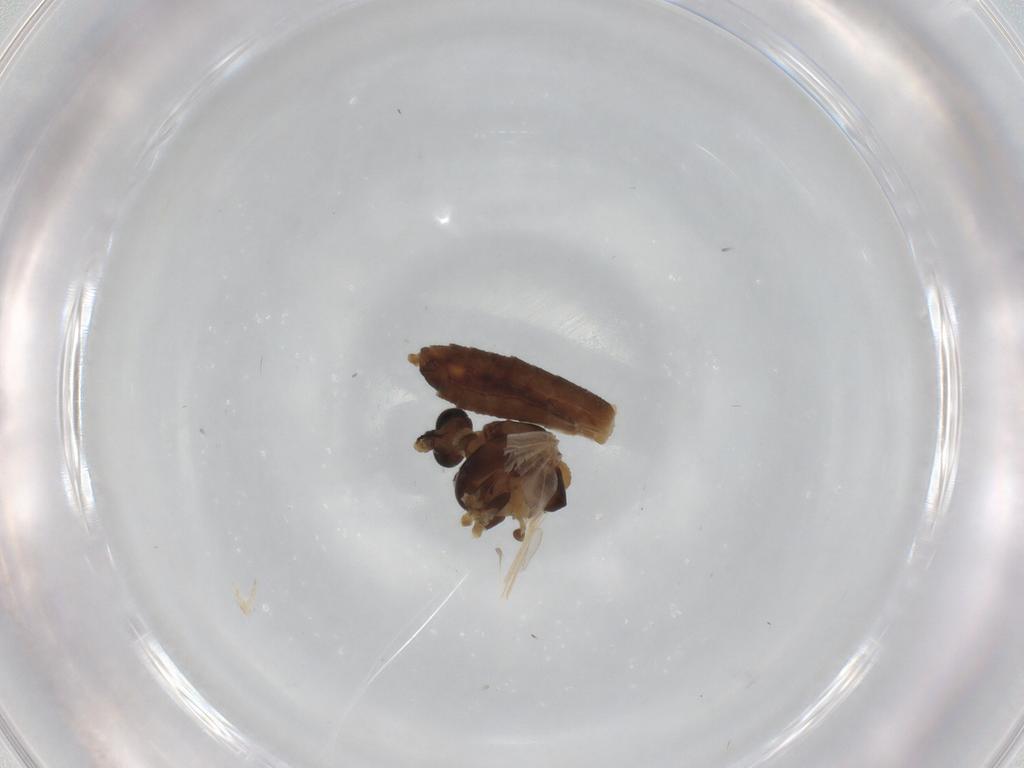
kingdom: Animalia
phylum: Arthropoda
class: Insecta
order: Diptera
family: Chironomidae
